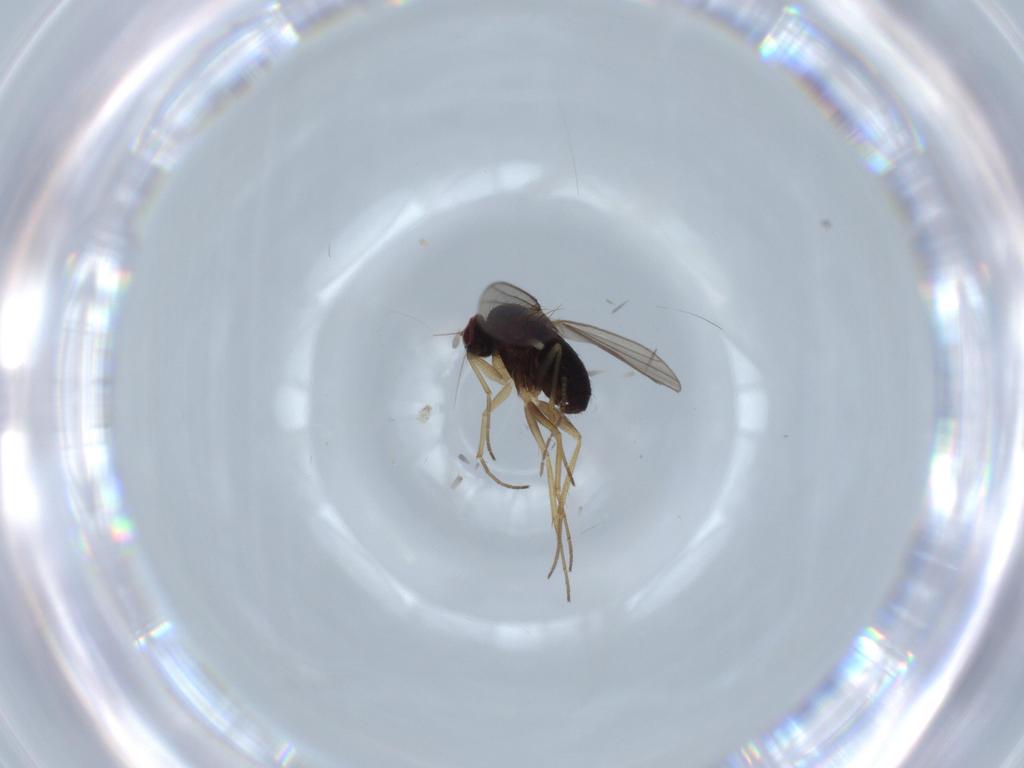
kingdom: Animalia
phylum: Arthropoda
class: Insecta
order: Diptera
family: Dolichopodidae
